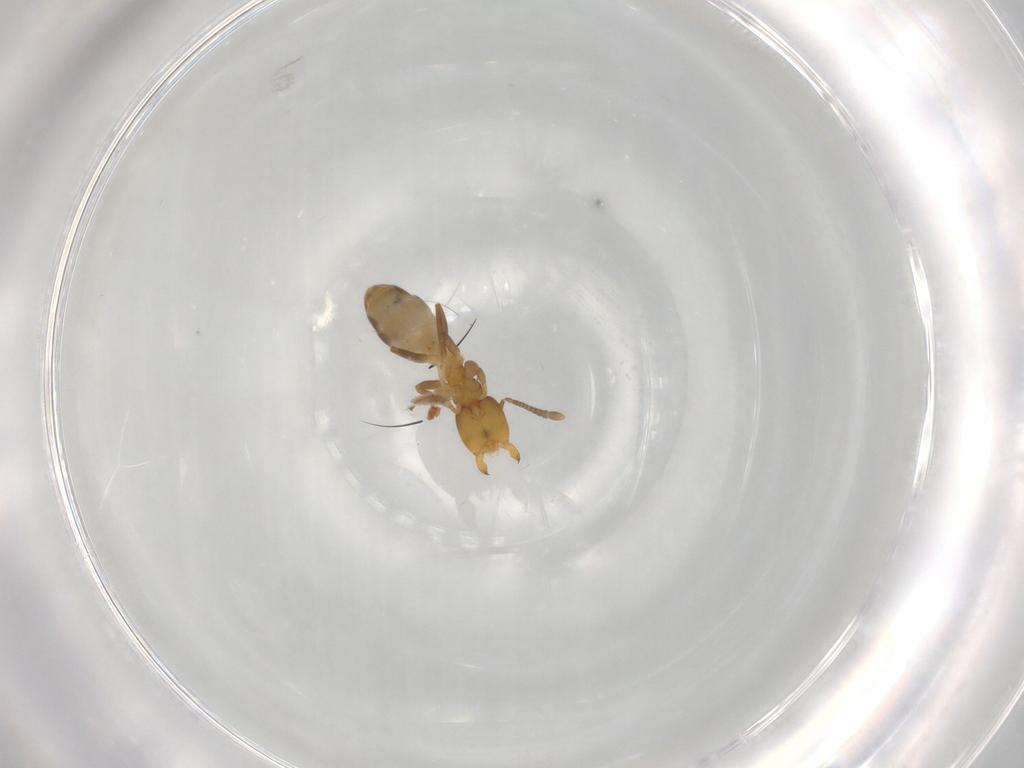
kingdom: Animalia
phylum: Arthropoda
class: Insecta
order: Hymenoptera
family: Formicidae
